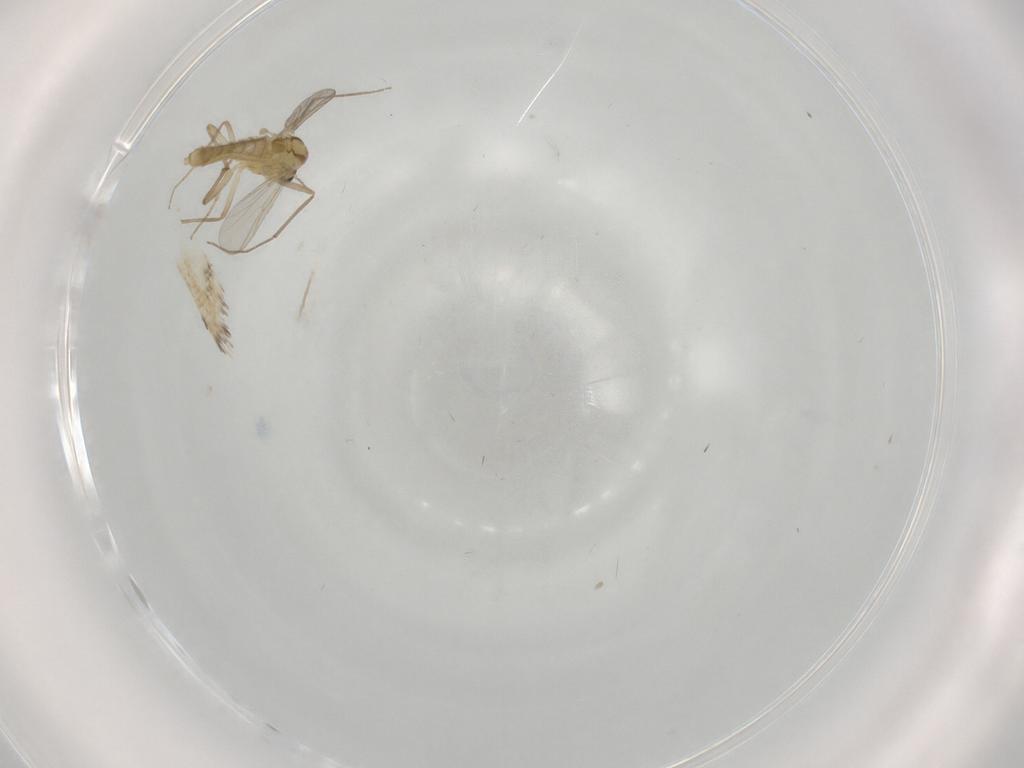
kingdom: Animalia
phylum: Arthropoda
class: Insecta
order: Diptera
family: Chironomidae
